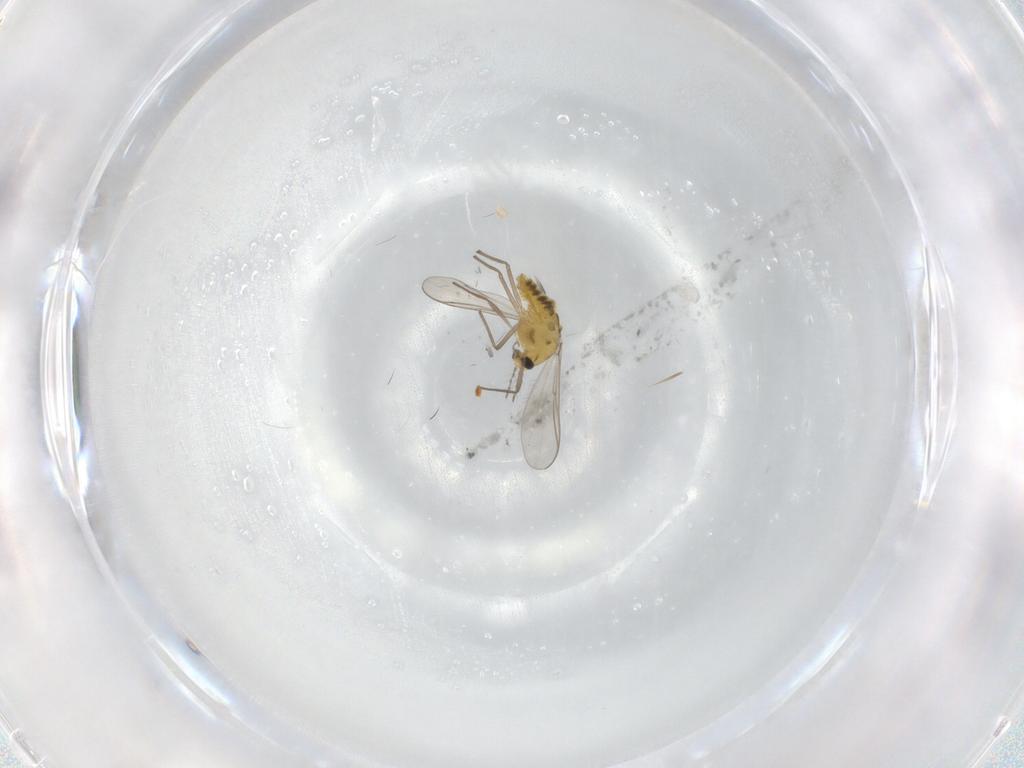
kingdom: Animalia
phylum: Arthropoda
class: Insecta
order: Diptera
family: Chironomidae
